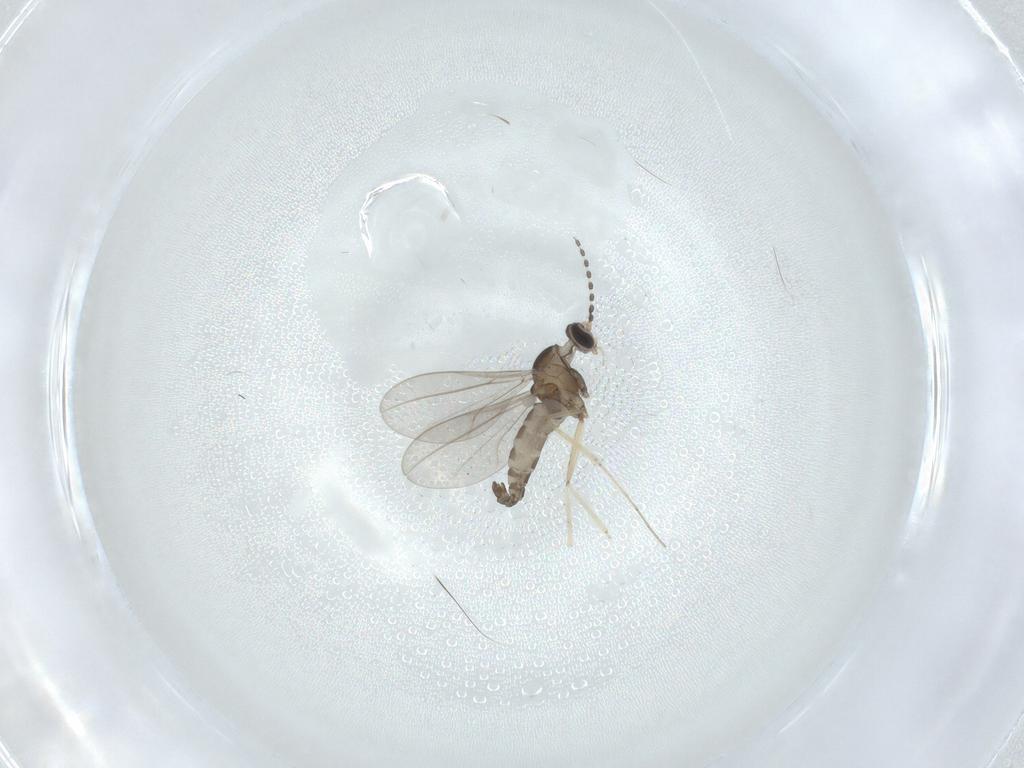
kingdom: Animalia
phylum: Arthropoda
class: Insecta
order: Diptera
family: Cecidomyiidae
